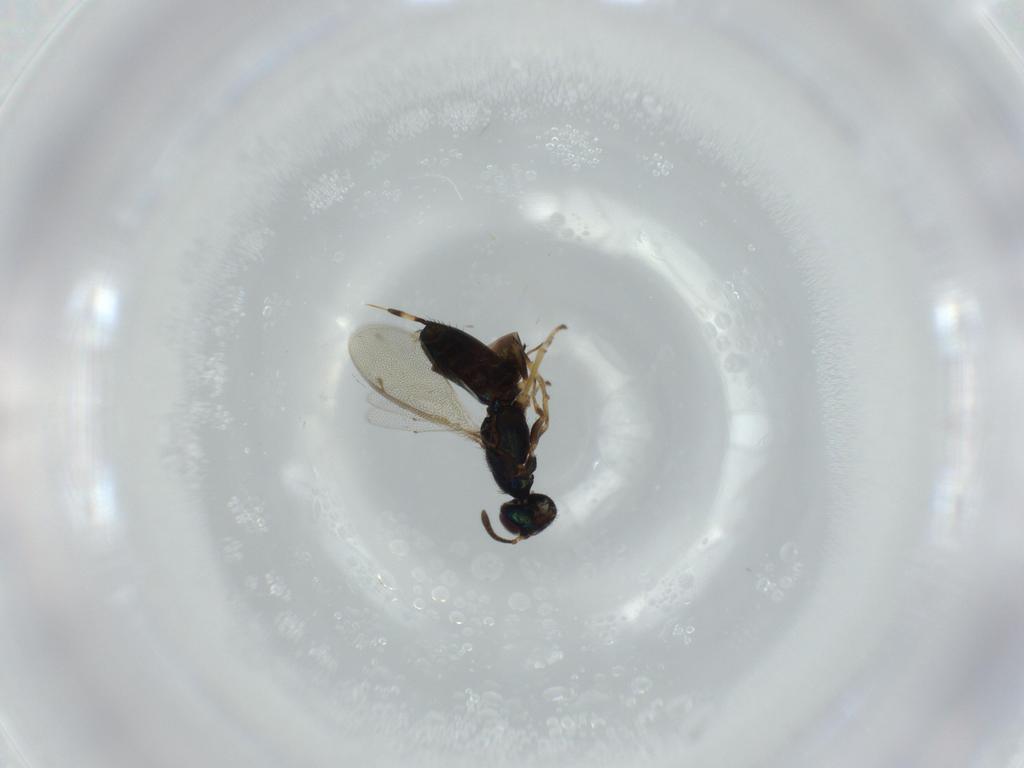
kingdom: Animalia
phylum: Arthropoda
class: Insecta
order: Hymenoptera
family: Eupelmidae
